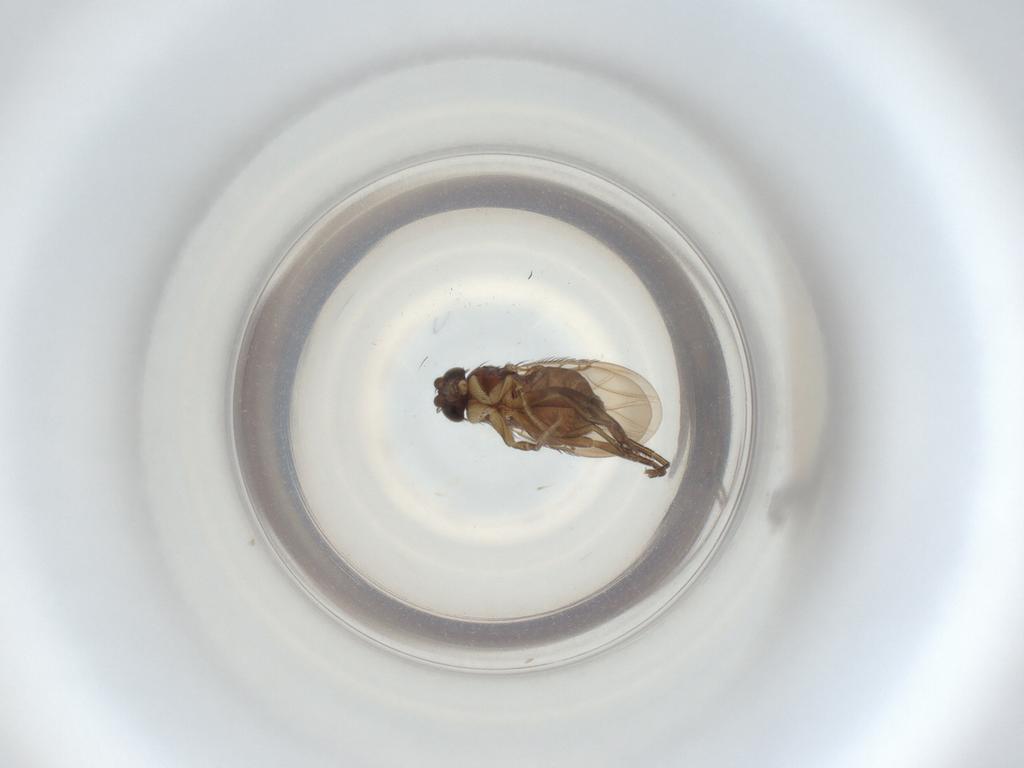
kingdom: Animalia
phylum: Arthropoda
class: Insecta
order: Diptera
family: Phoridae
